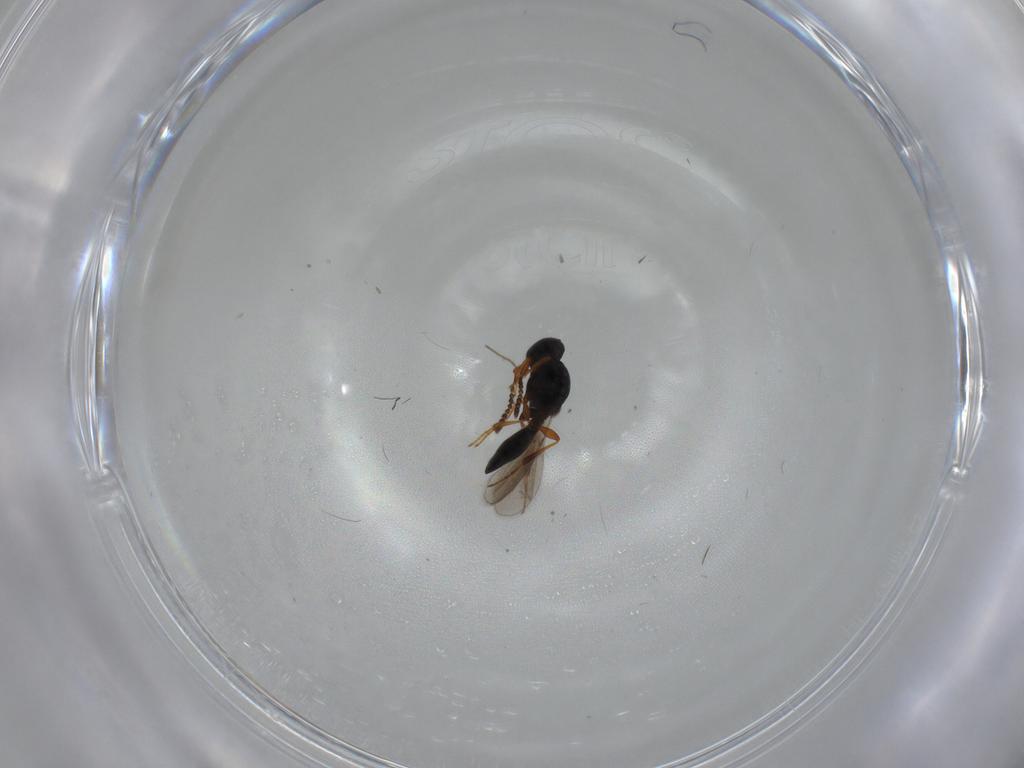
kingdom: Animalia
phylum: Arthropoda
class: Insecta
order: Hymenoptera
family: Platygastridae
